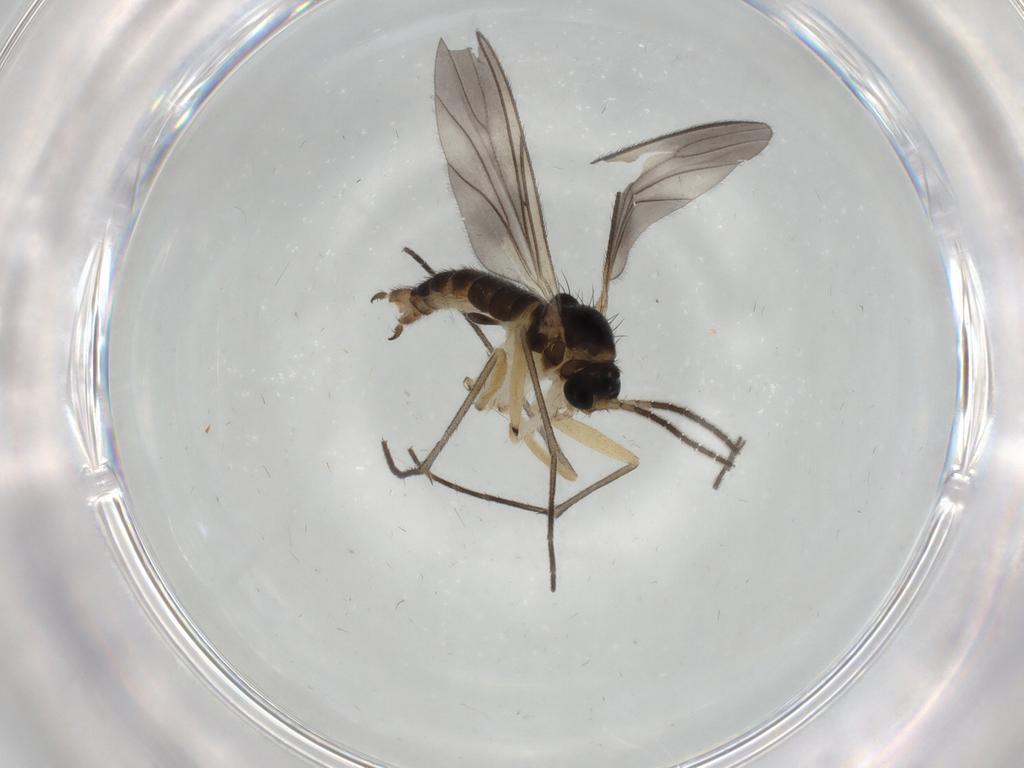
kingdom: Animalia
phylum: Arthropoda
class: Insecta
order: Diptera
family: Sciaridae
